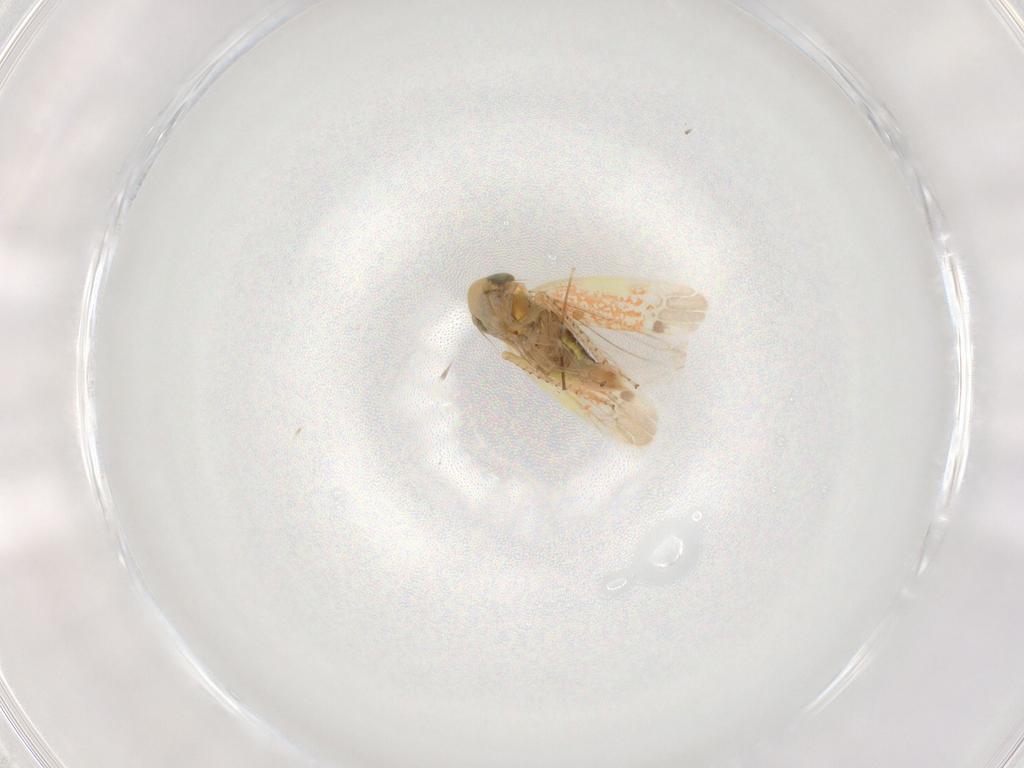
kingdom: Animalia
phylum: Arthropoda
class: Insecta
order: Hemiptera
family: Cicadellidae
